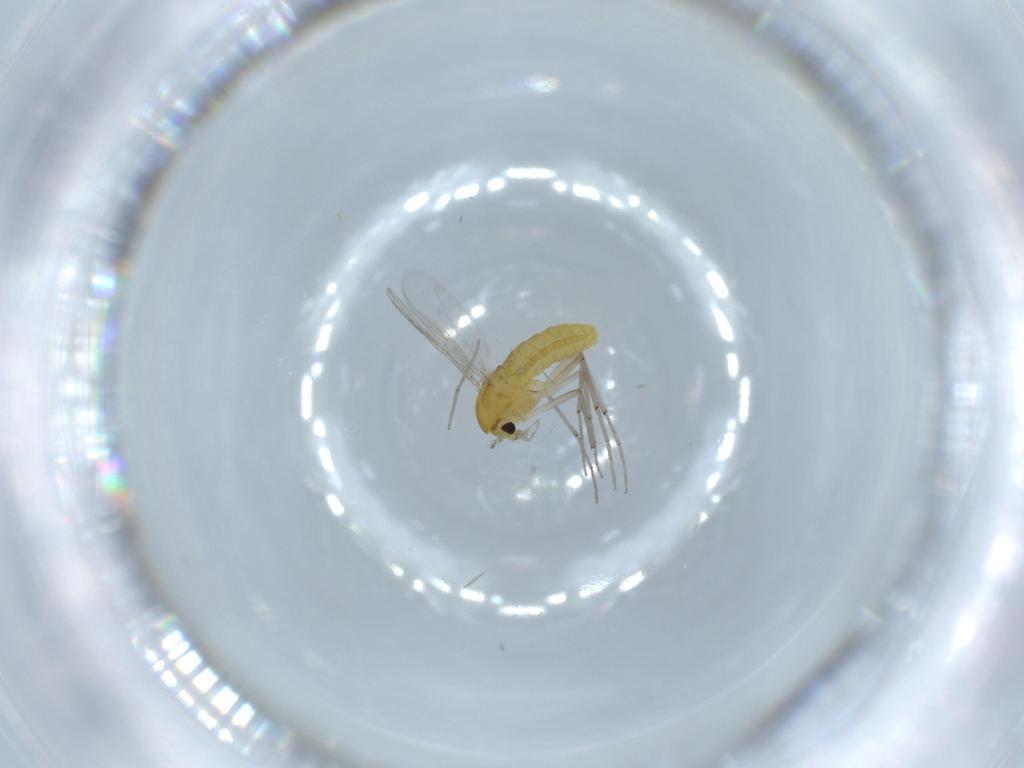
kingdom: Animalia
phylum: Arthropoda
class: Insecta
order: Diptera
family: Chironomidae
